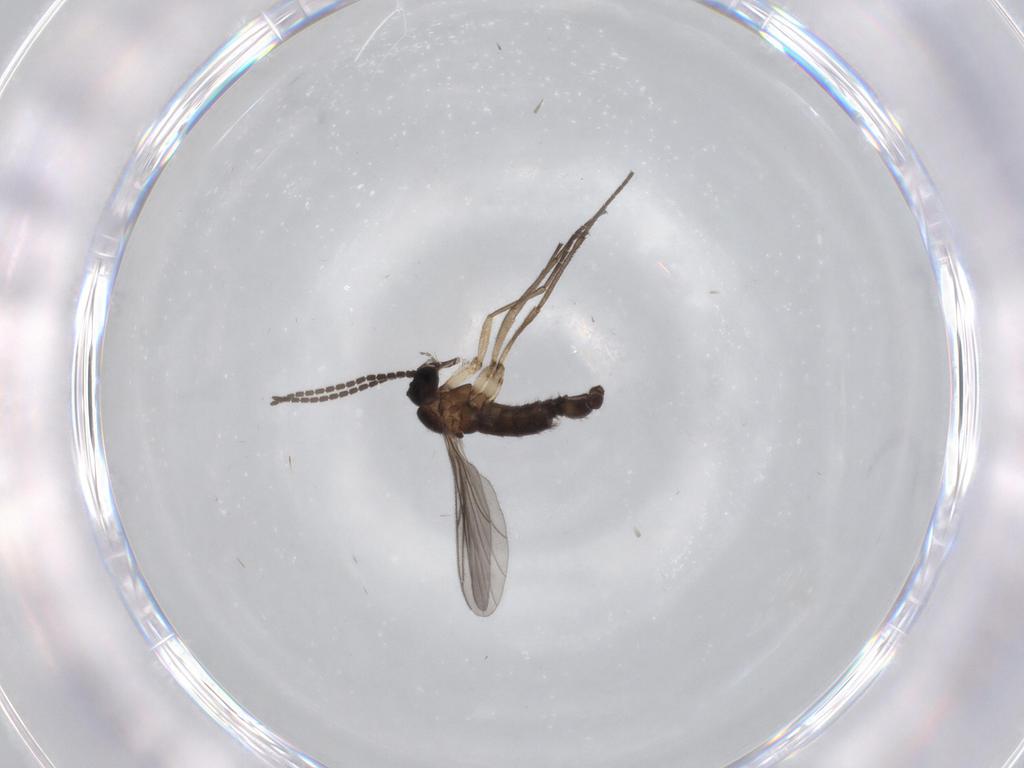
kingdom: Animalia
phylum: Arthropoda
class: Insecta
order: Diptera
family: Sciaridae
